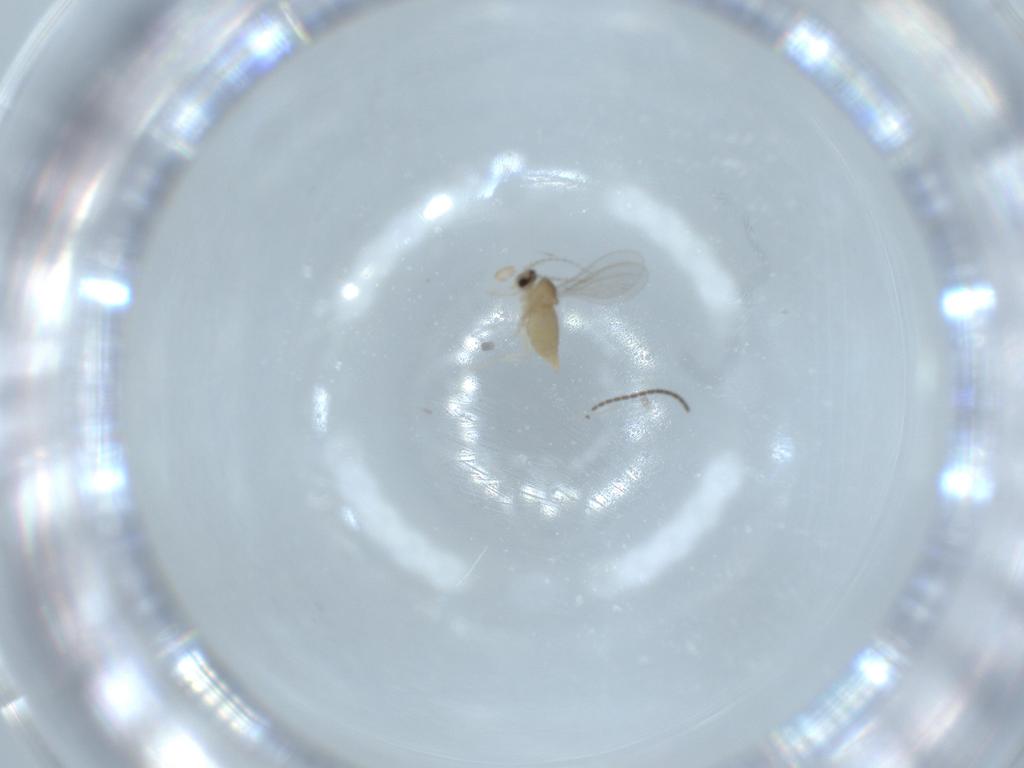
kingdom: Animalia
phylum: Arthropoda
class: Insecta
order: Diptera
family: Cecidomyiidae
